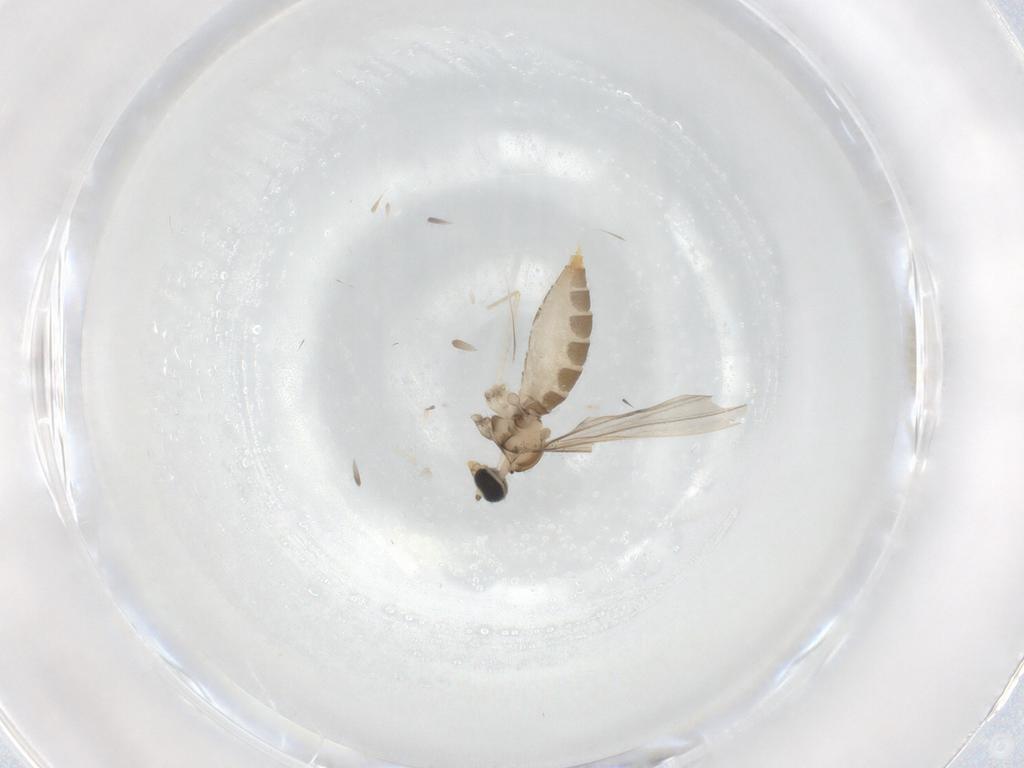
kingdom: Animalia
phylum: Arthropoda
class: Insecta
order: Diptera
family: Cecidomyiidae
